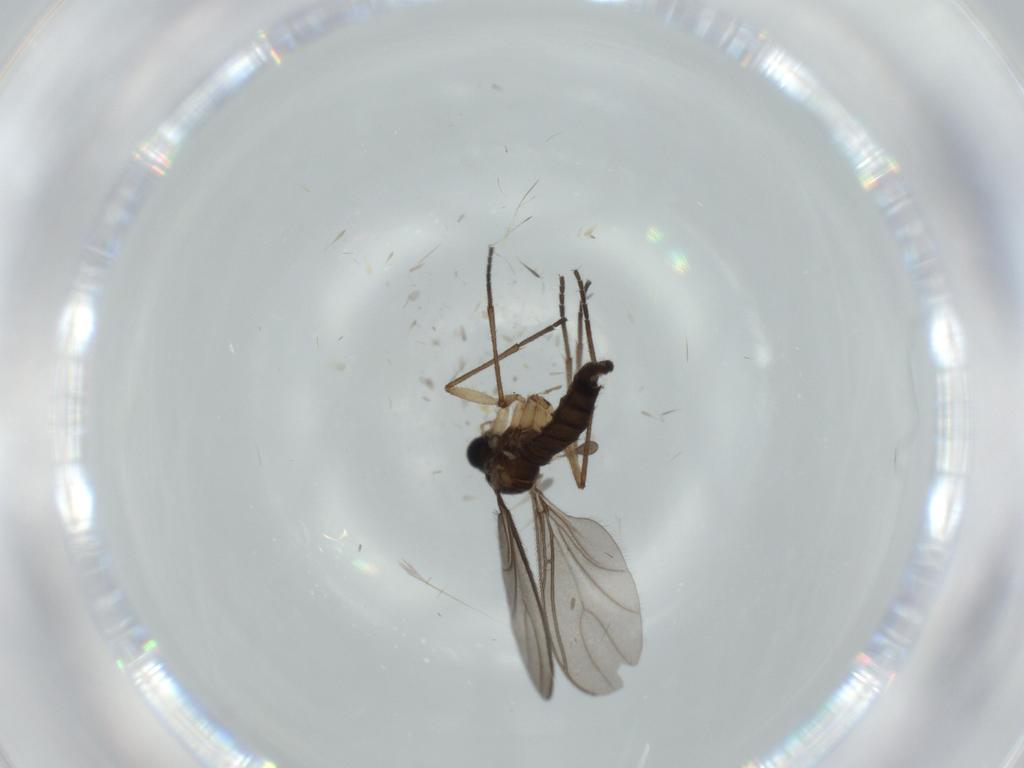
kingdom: Animalia
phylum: Arthropoda
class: Insecta
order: Diptera
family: Sciaridae
